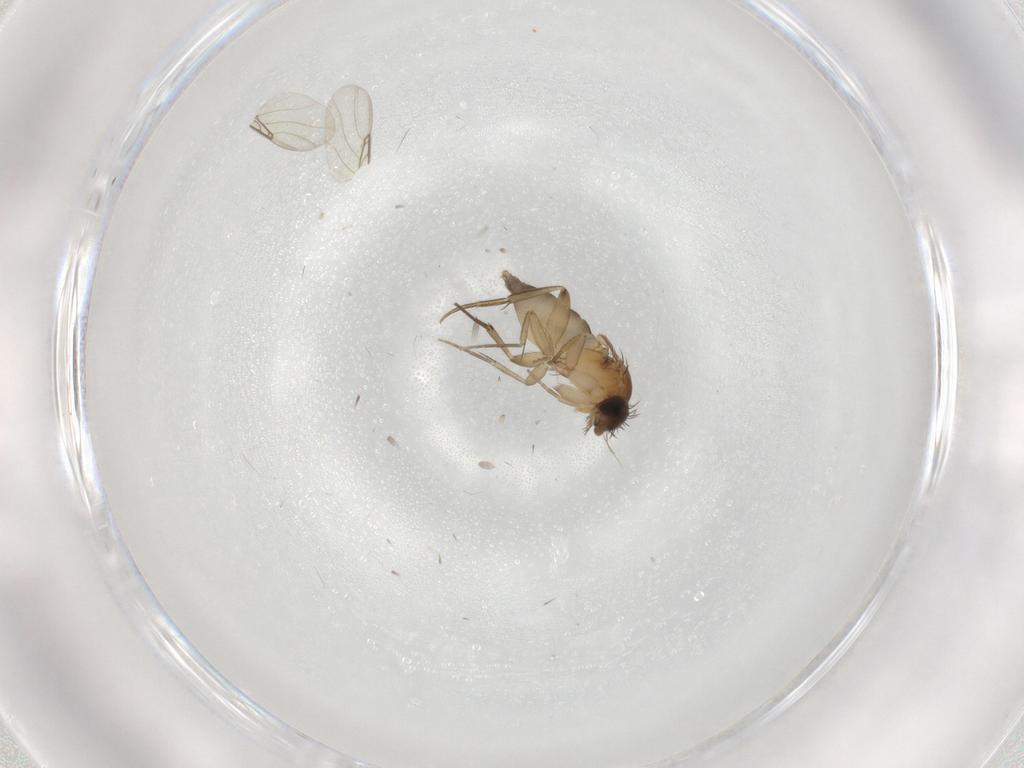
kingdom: Animalia
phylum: Arthropoda
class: Insecta
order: Diptera
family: Phoridae
